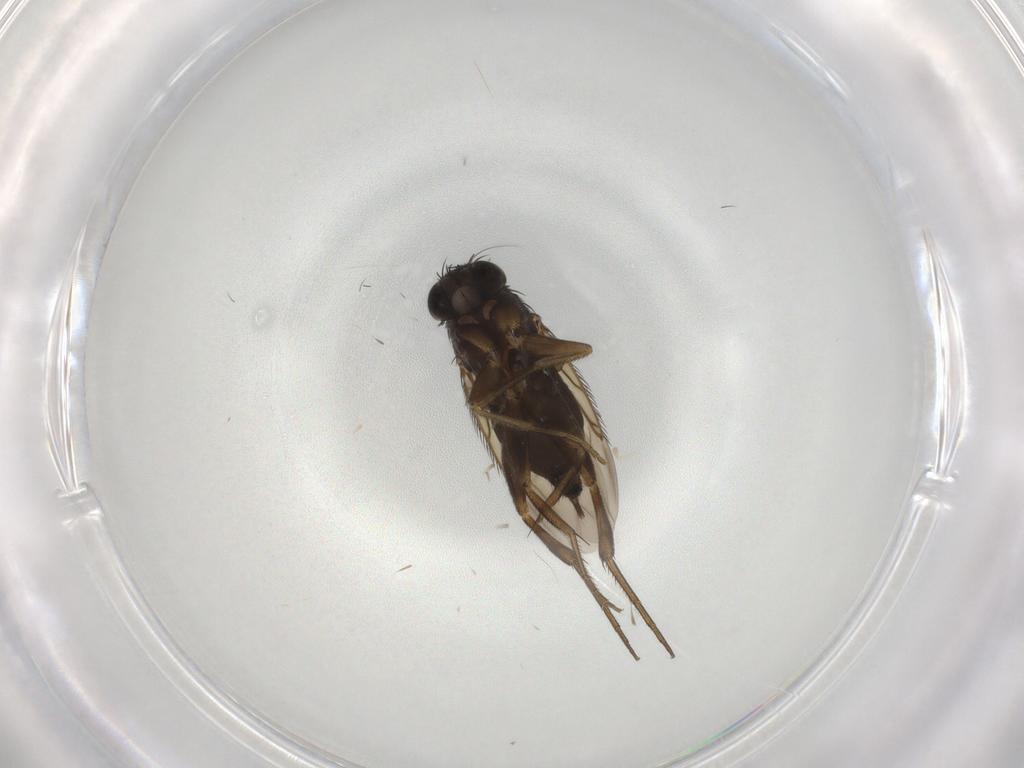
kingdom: Animalia
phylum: Arthropoda
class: Insecta
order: Diptera
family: Phoridae
